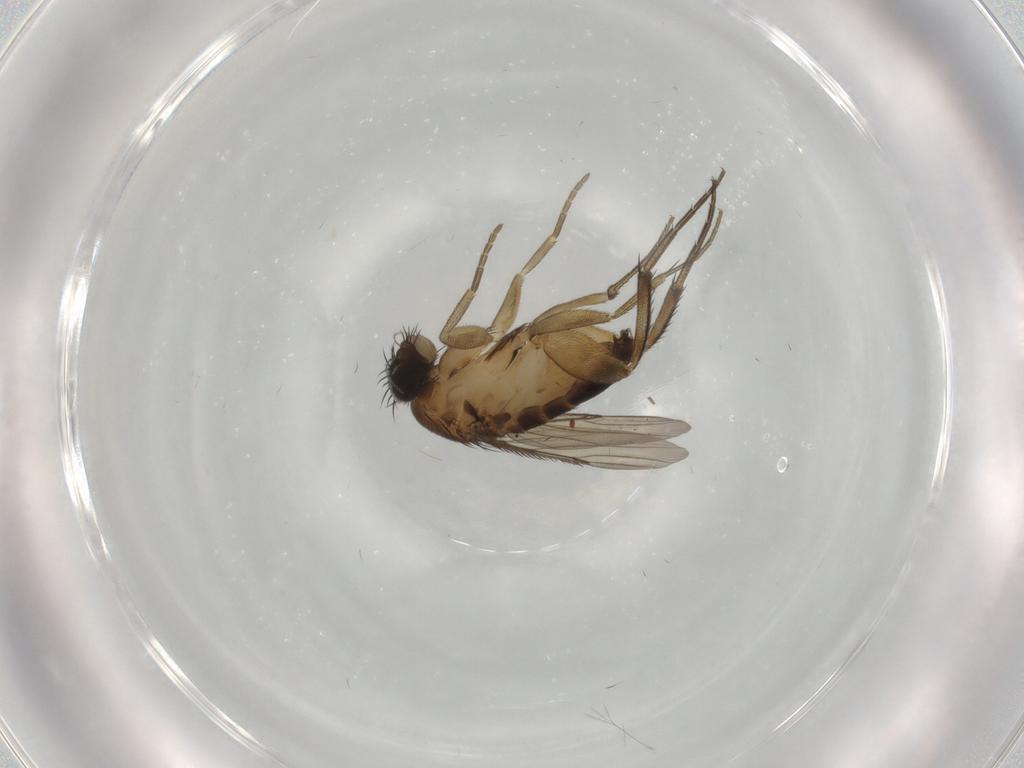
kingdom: Animalia
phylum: Arthropoda
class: Insecta
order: Diptera
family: Phoridae
